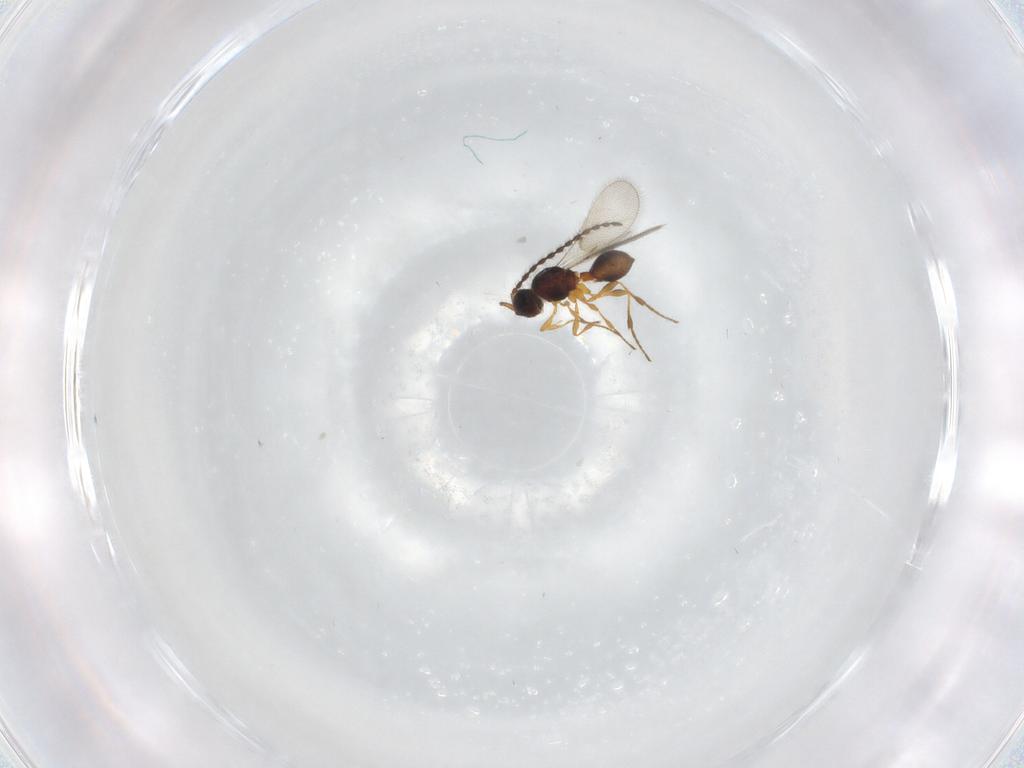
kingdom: Animalia
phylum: Arthropoda
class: Insecta
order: Hymenoptera
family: Diapriidae
